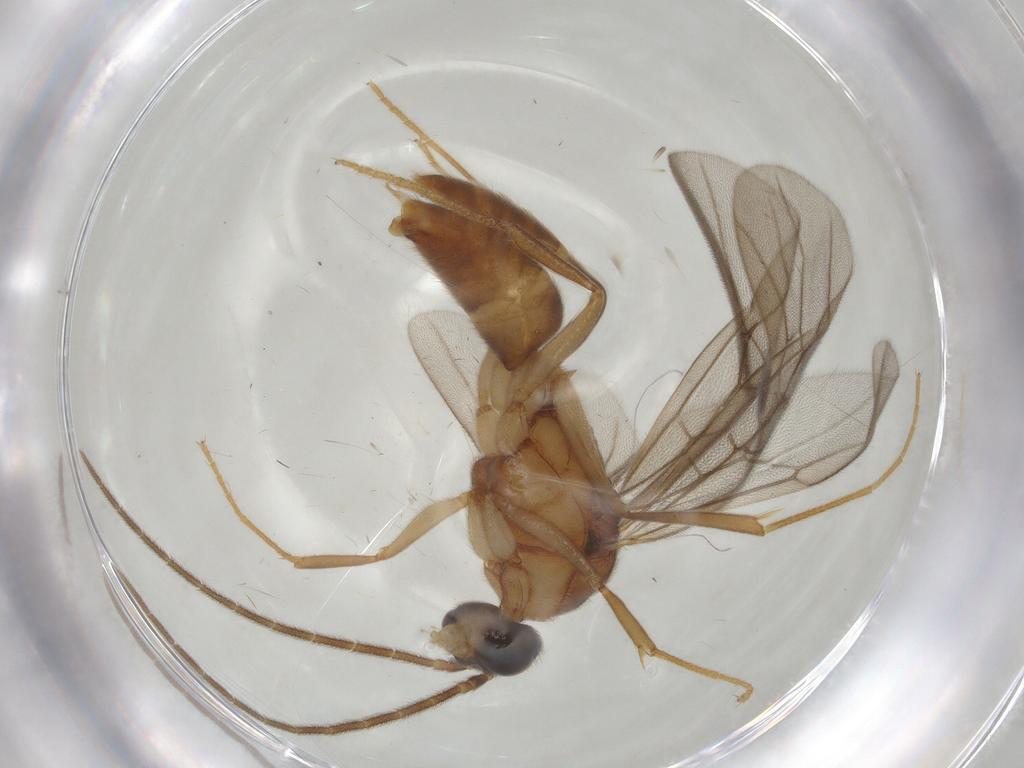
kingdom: Animalia
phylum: Arthropoda
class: Insecta
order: Hymenoptera
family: Formicidae
